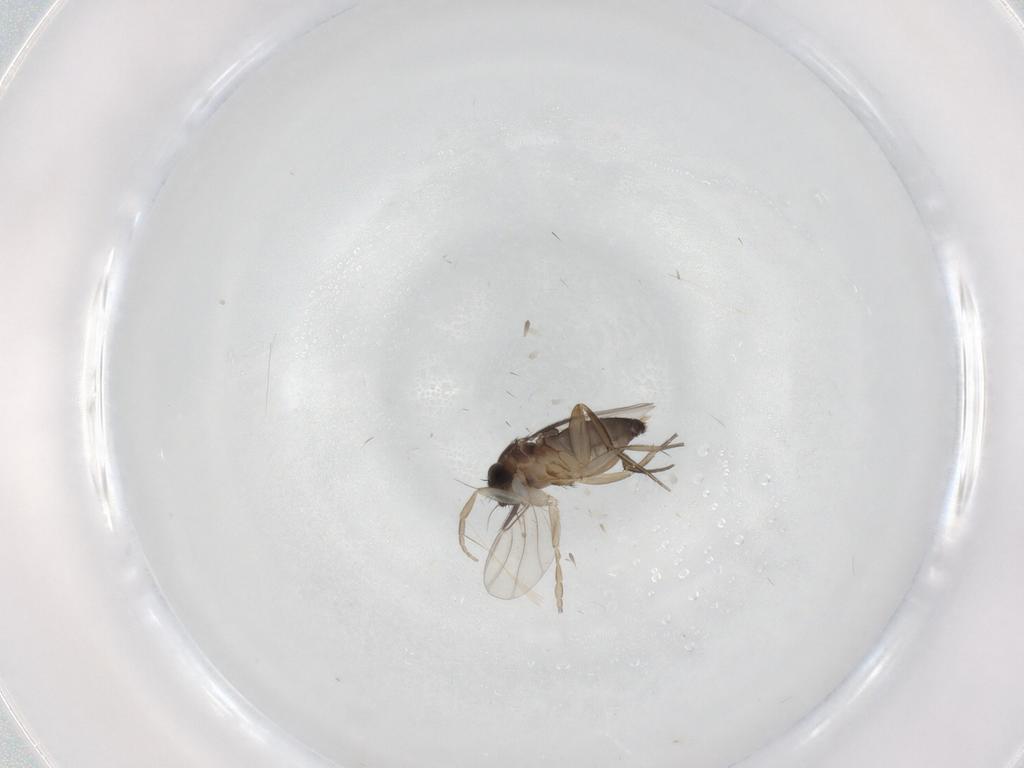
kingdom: Animalia
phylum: Arthropoda
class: Insecta
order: Diptera
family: Phoridae
